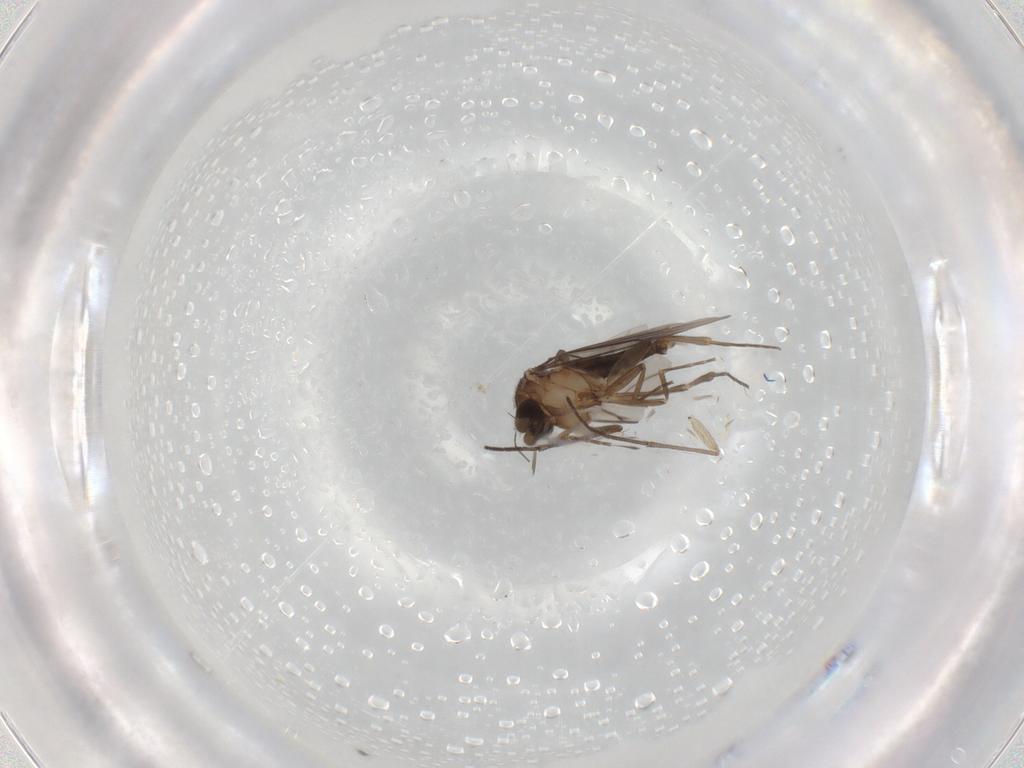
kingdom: Animalia
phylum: Arthropoda
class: Insecta
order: Diptera
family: Sciaridae
